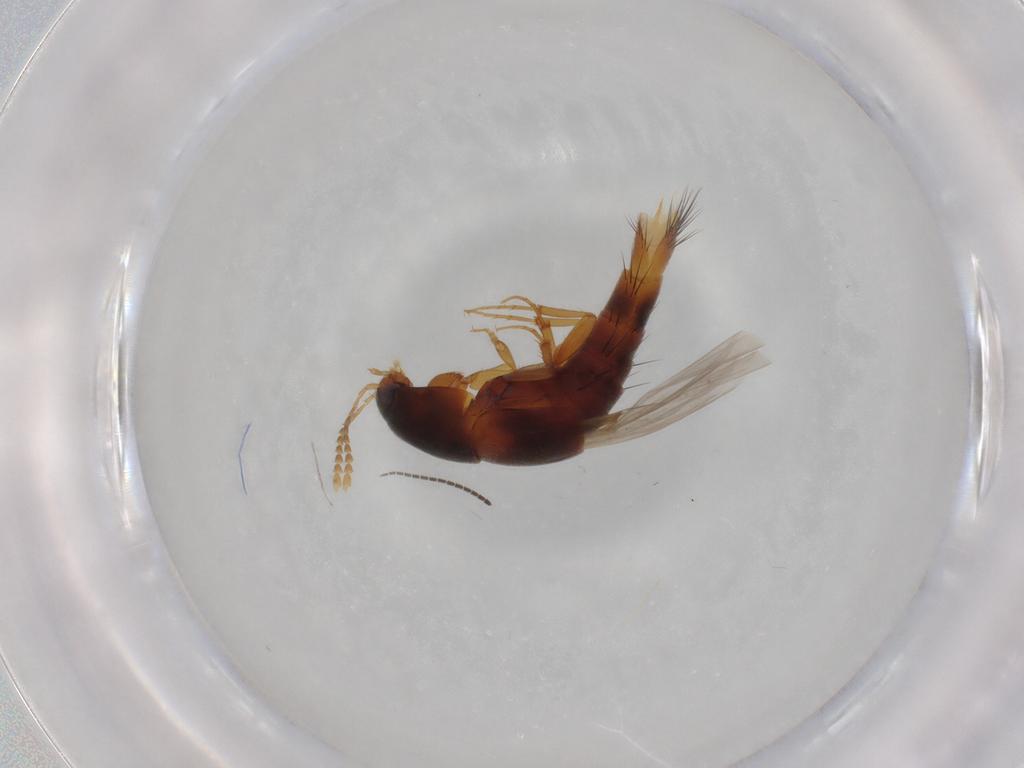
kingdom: Animalia
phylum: Arthropoda
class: Insecta
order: Coleoptera
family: Staphylinidae
